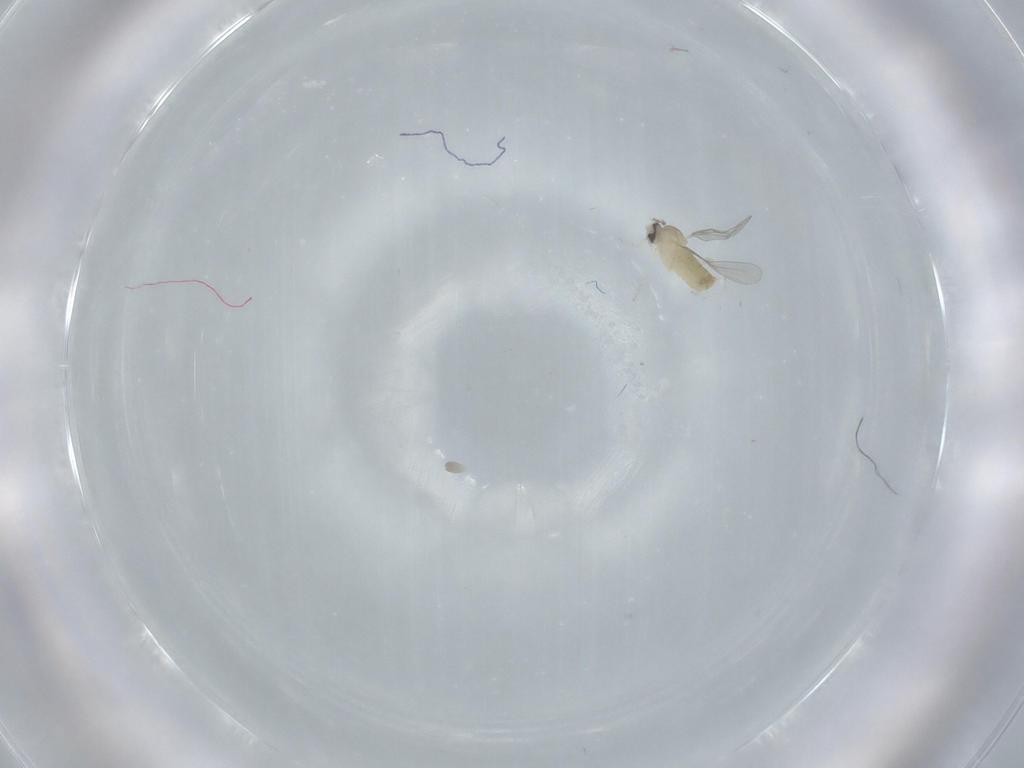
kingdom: Animalia
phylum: Arthropoda
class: Insecta
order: Diptera
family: Cecidomyiidae
